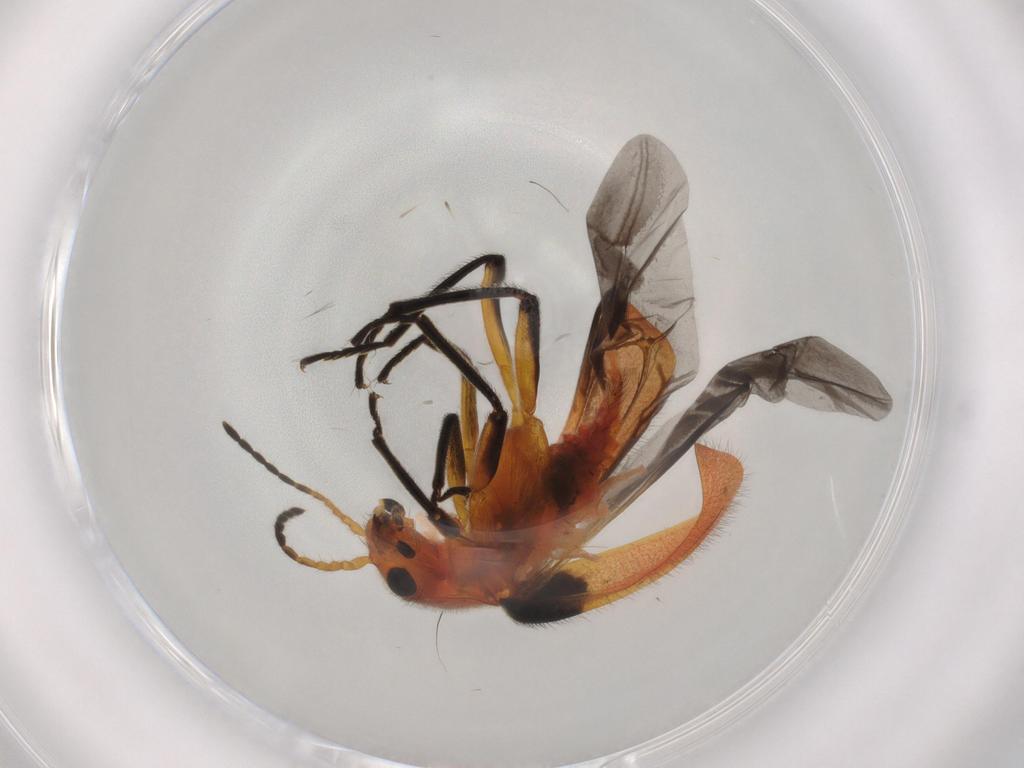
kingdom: Animalia
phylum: Arthropoda
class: Insecta
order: Coleoptera
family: Melyridae
